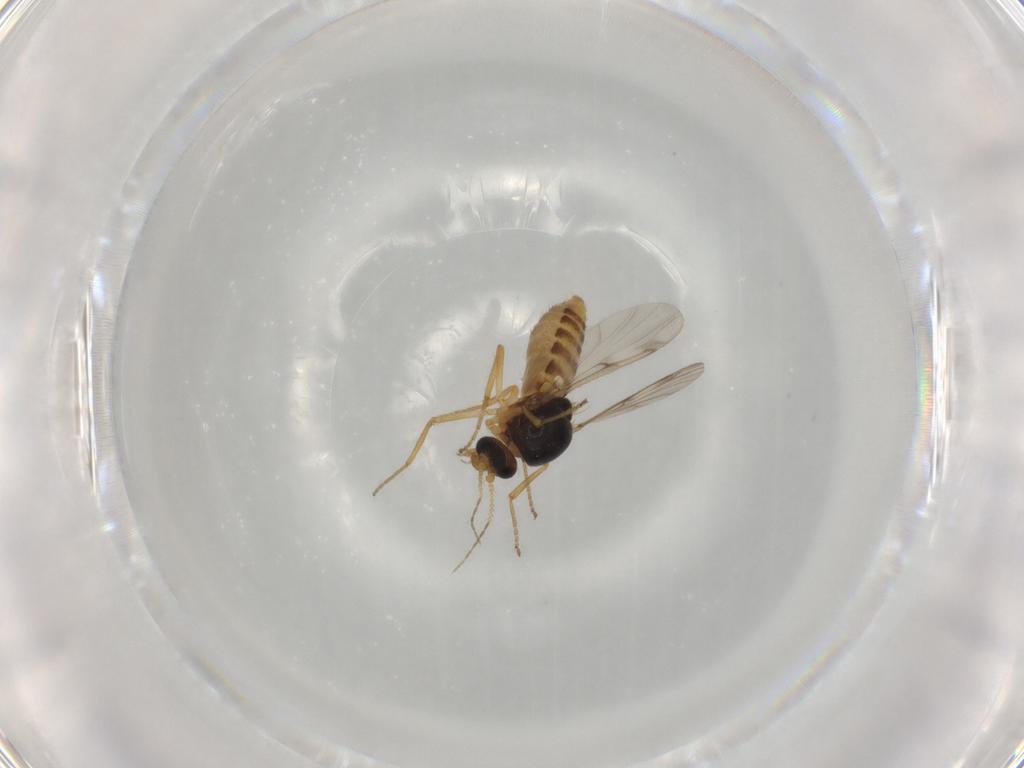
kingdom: Animalia
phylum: Arthropoda
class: Insecta
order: Diptera
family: Ceratopogonidae
